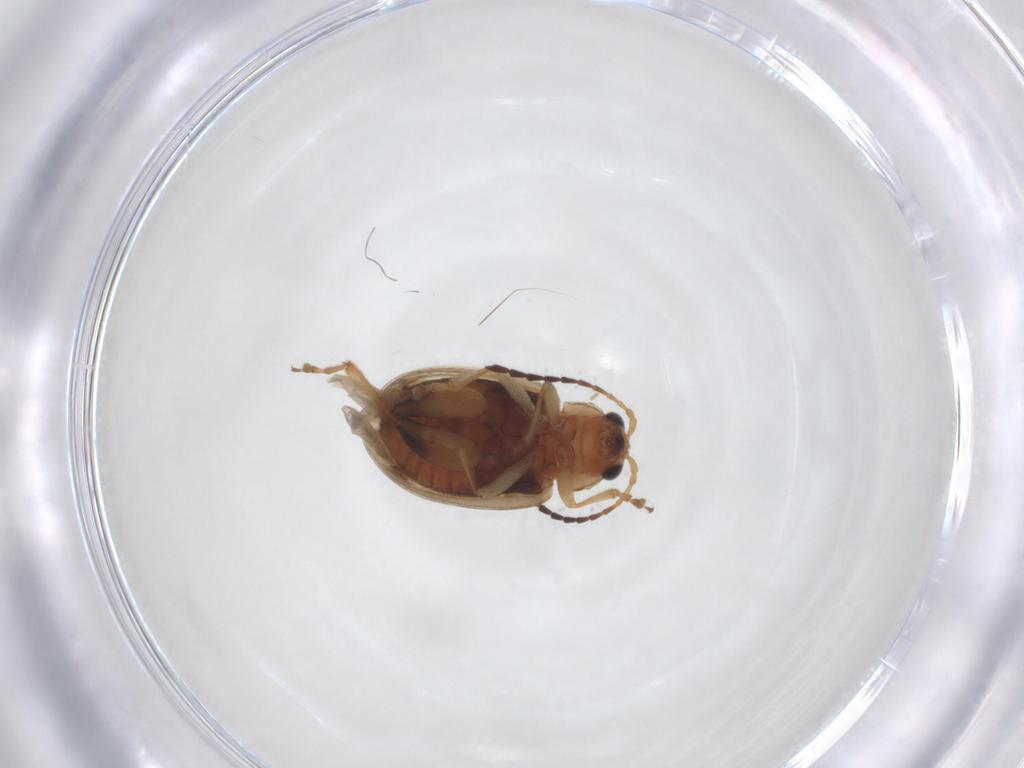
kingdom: Animalia
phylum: Arthropoda
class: Insecta
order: Coleoptera
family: Chrysomelidae
